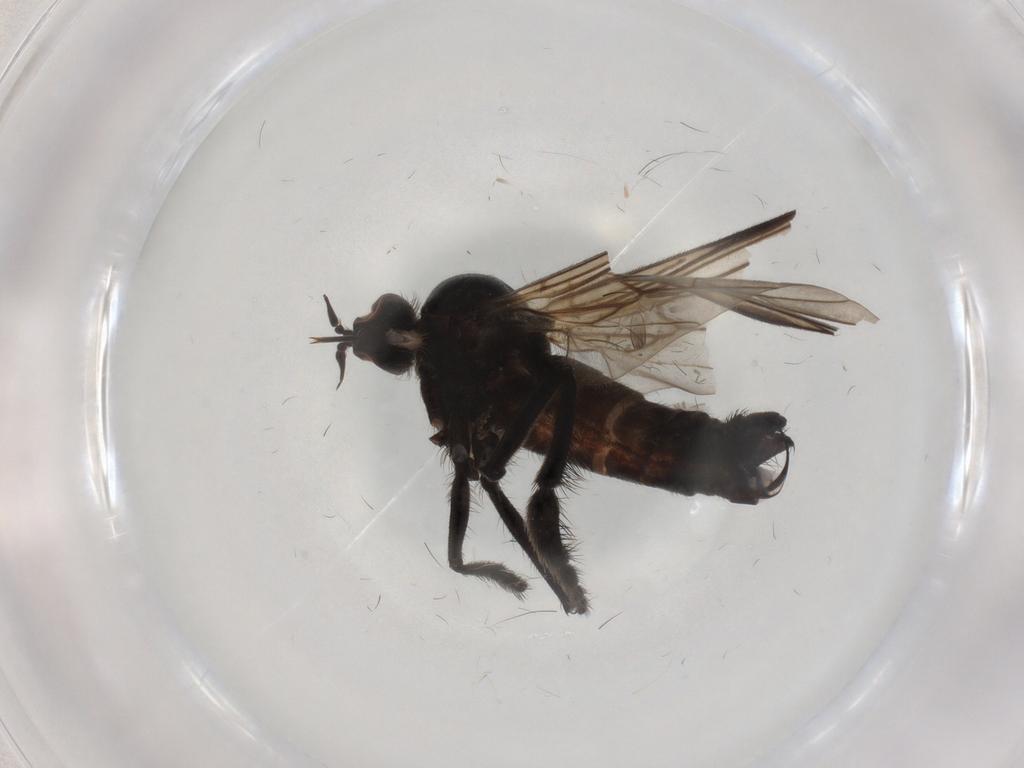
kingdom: Animalia
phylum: Arthropoda
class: Insecta
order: Diptera
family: Empididae
